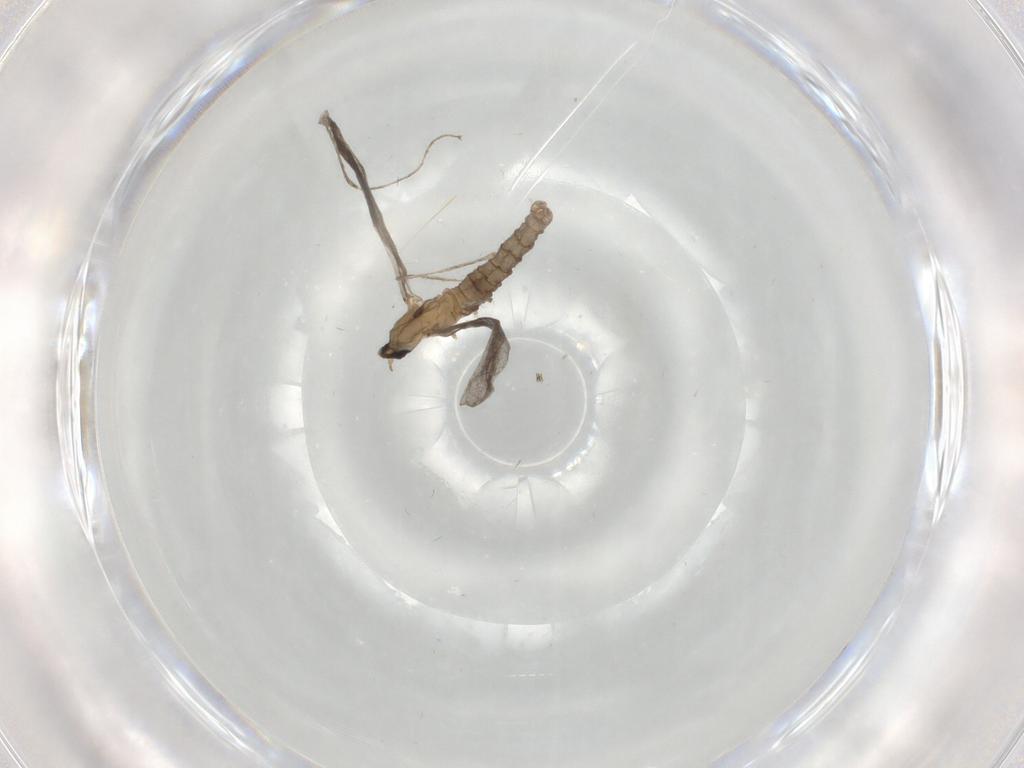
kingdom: Animalia
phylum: Arthropoda
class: Insecta
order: Diptera
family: Cecidomyiidae
